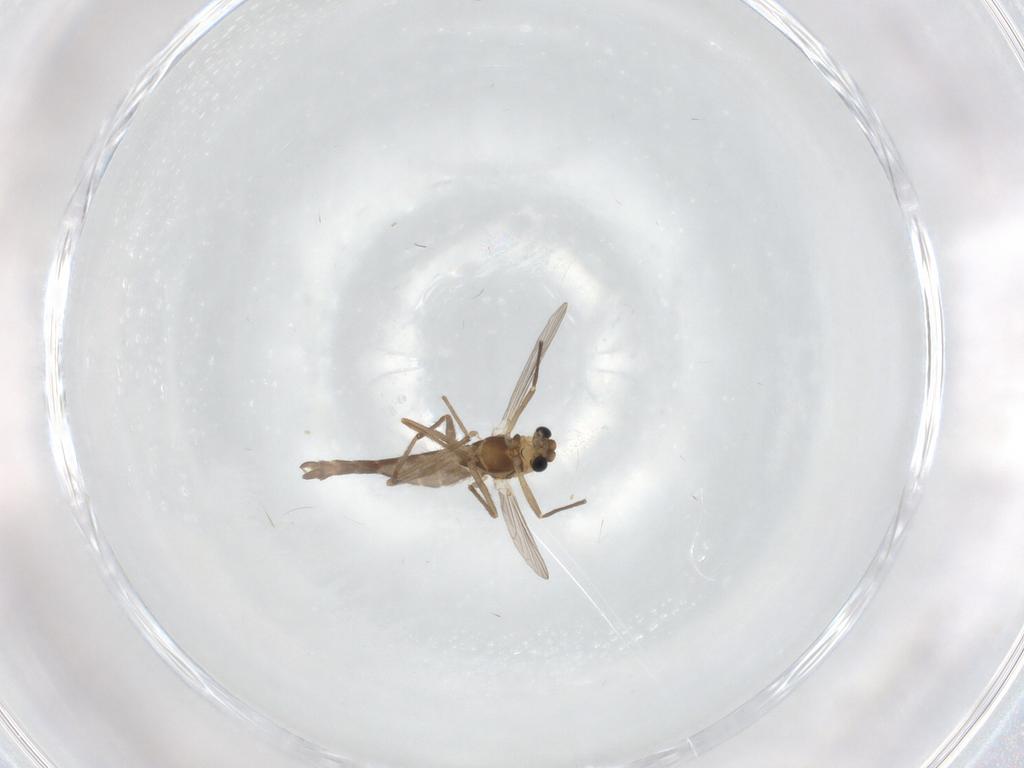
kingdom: Animalia
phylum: Arthropoda
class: Insecta
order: Diptera
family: Chironomidae
